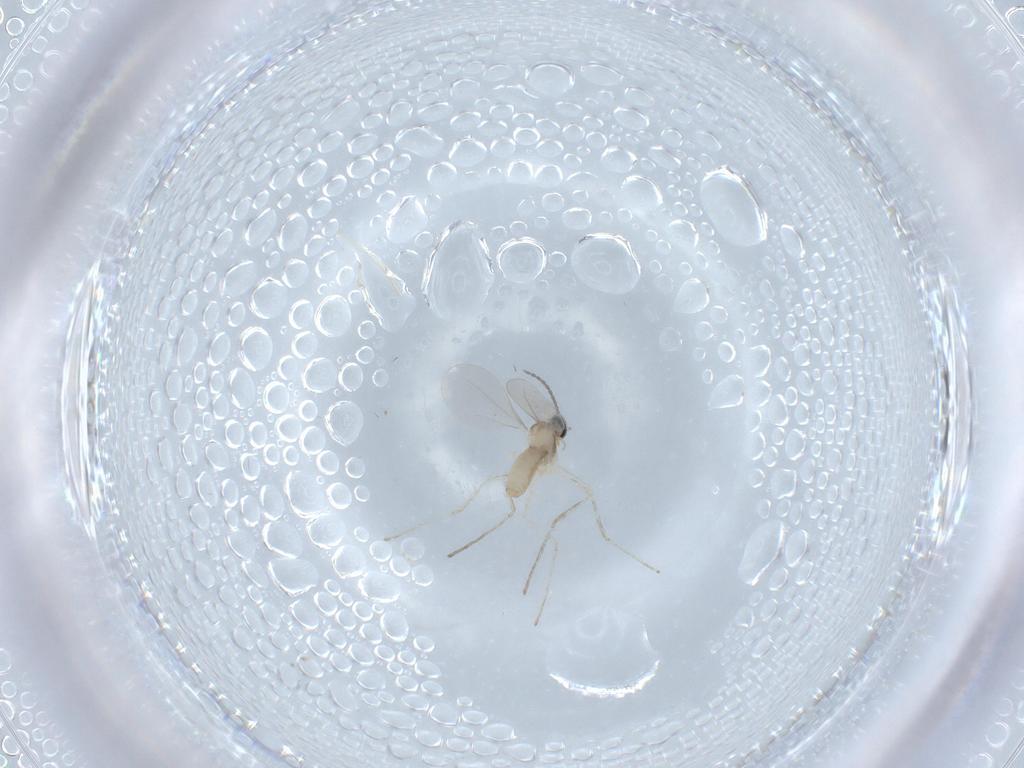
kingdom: Animalia
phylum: Arthropoda
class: Insecta
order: Diptera
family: Cecidomyiidae
